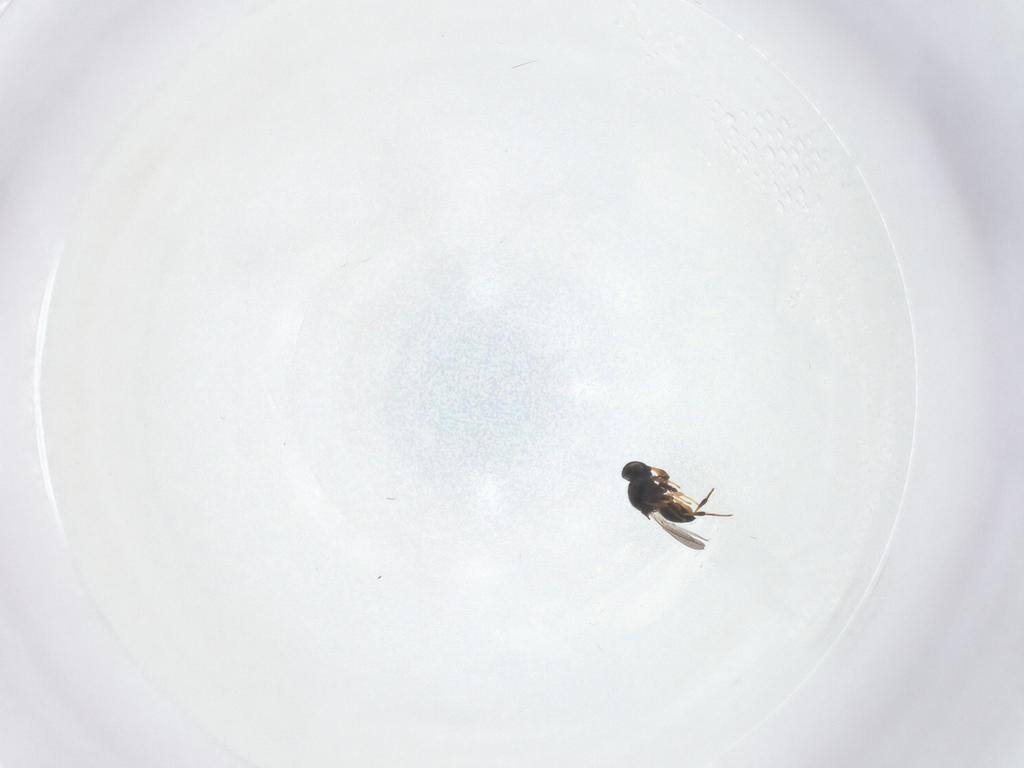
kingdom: Animalia
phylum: Arthropoda
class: Insecta
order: Hymenoptera
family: Platygastridae
